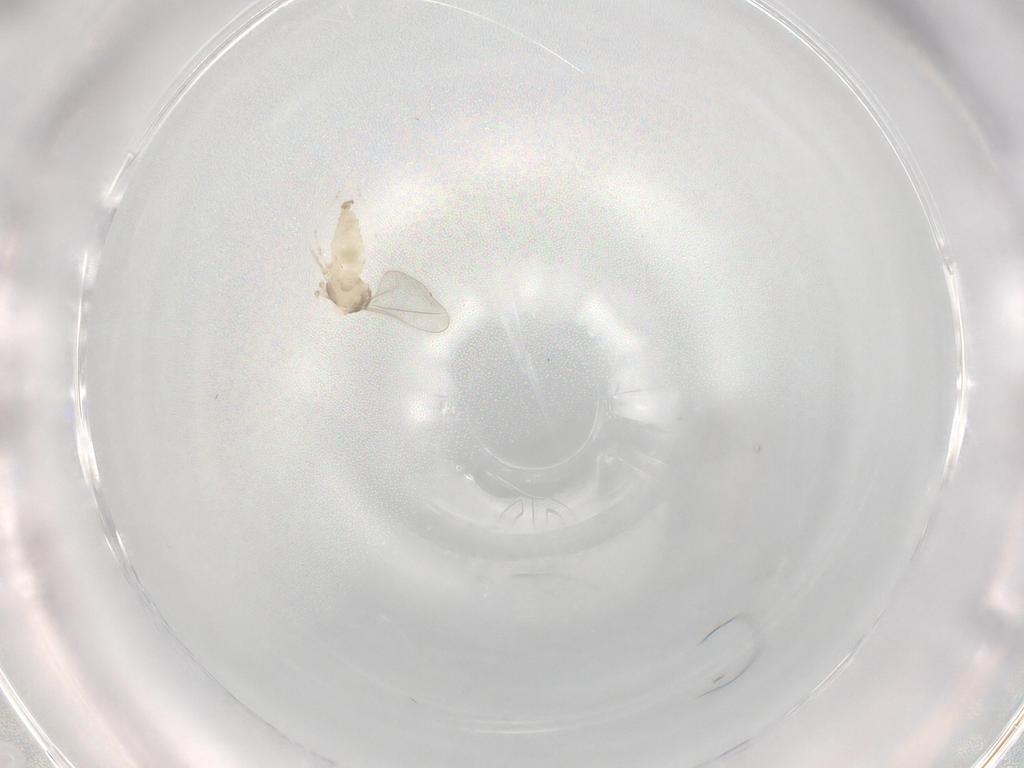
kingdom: Animalia
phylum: Arthropoda
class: Insecta
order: Diptera
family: Cecidomyiidae
